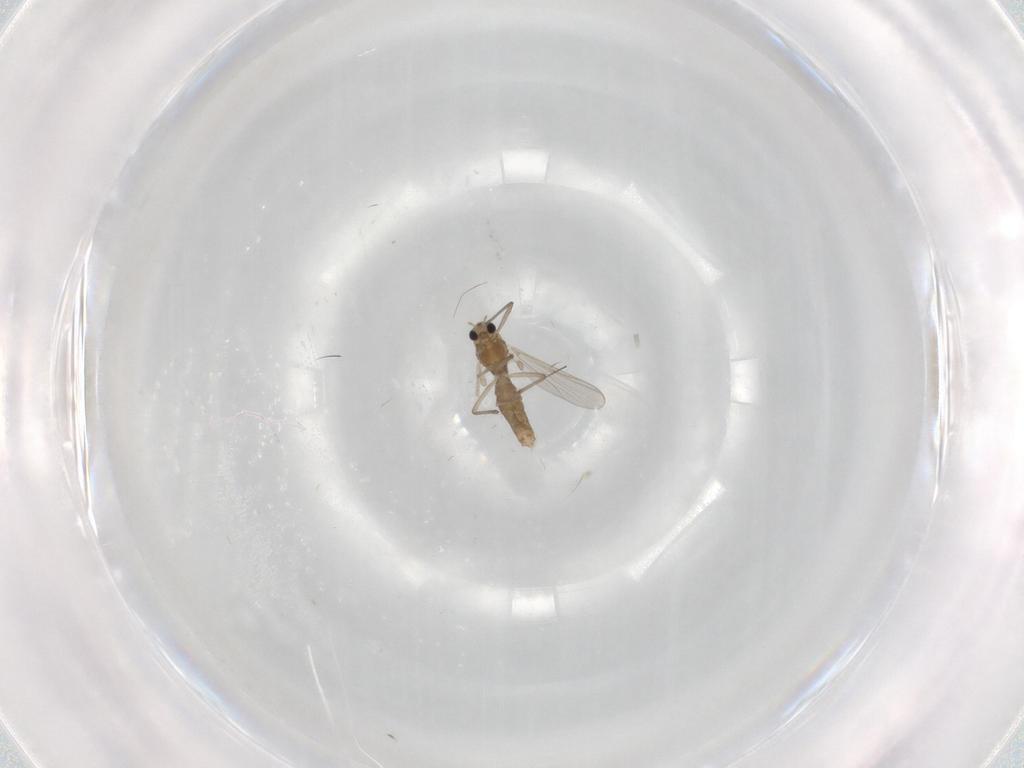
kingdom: Animalia
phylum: Arthropoda
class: Insecta
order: Diptera
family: Chironomidae
